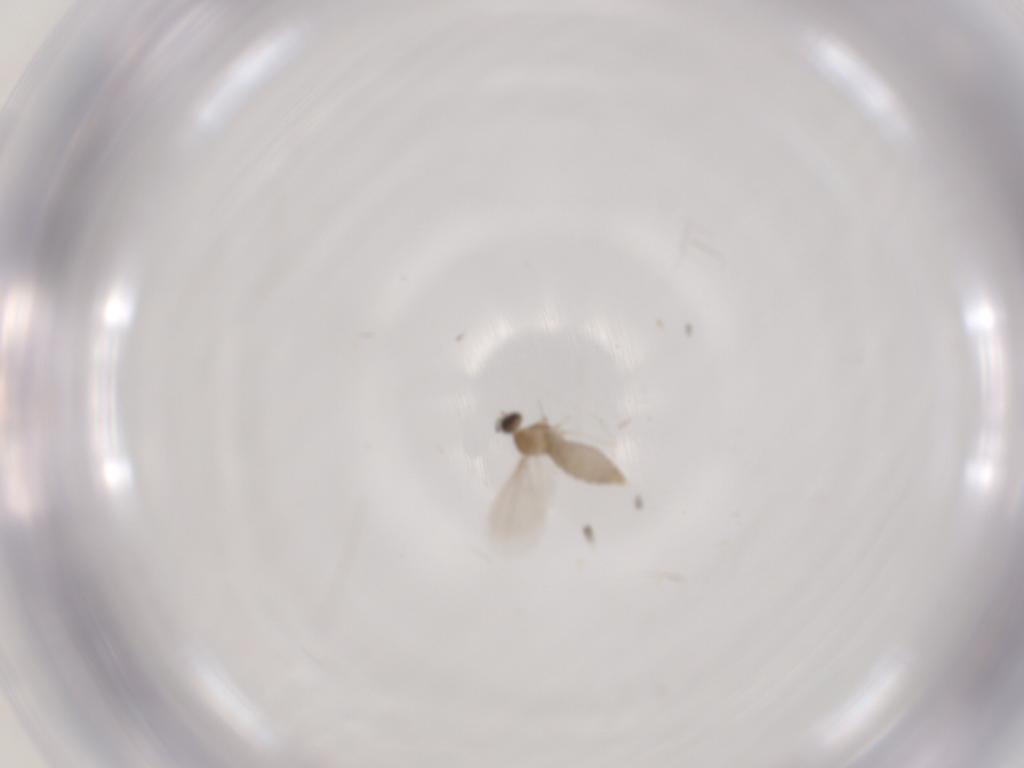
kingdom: Animalia
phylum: Arthropoda
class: Insecta
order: Diptera
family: Cecidomyiidae
